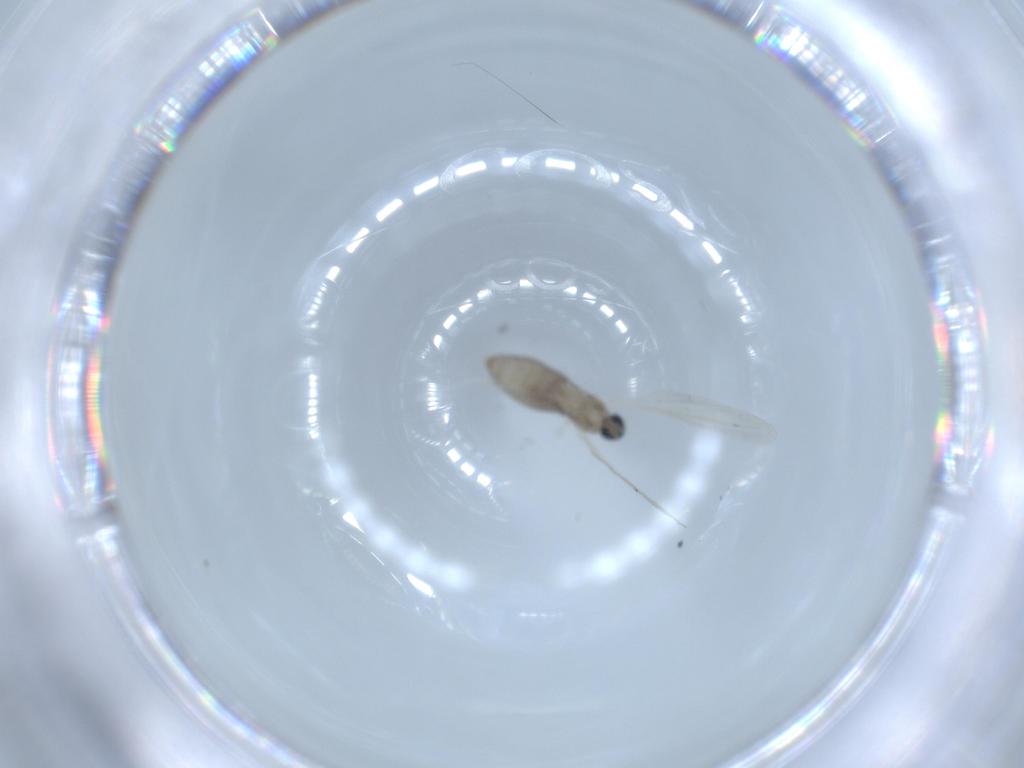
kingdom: Animalia
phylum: Arthropoda
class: Insecta
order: Diptera
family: Cecidomyiidae
